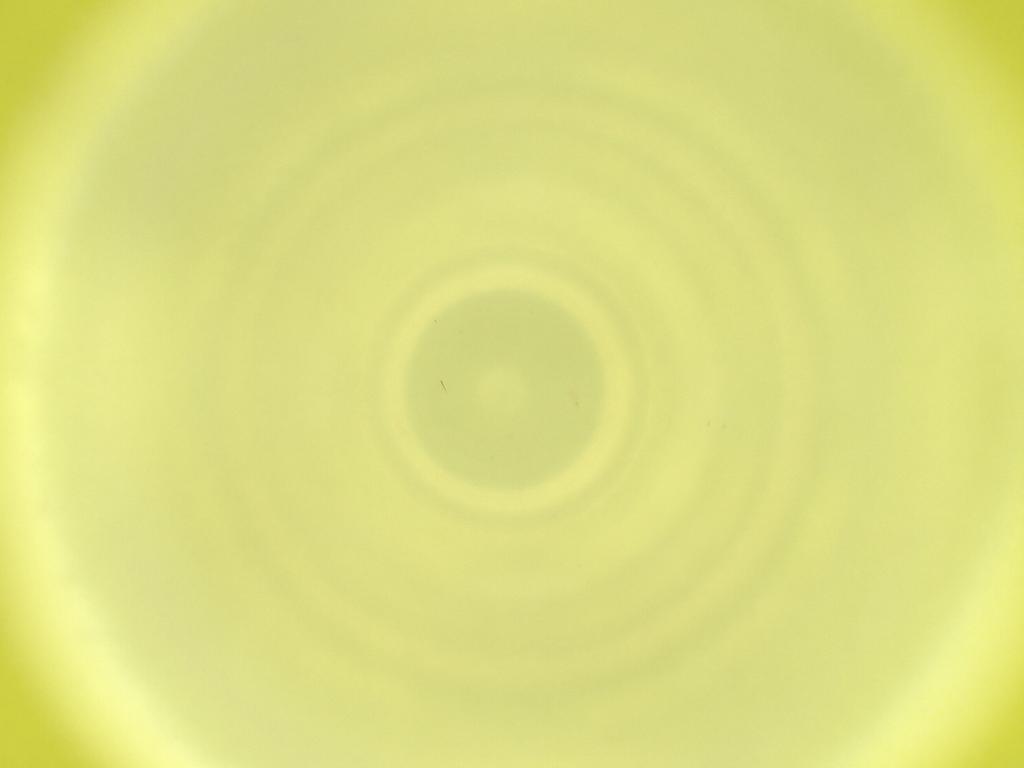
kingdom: Animalia
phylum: Arthropoda
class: Insecta
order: Diptera
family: Cecidomyiidae
